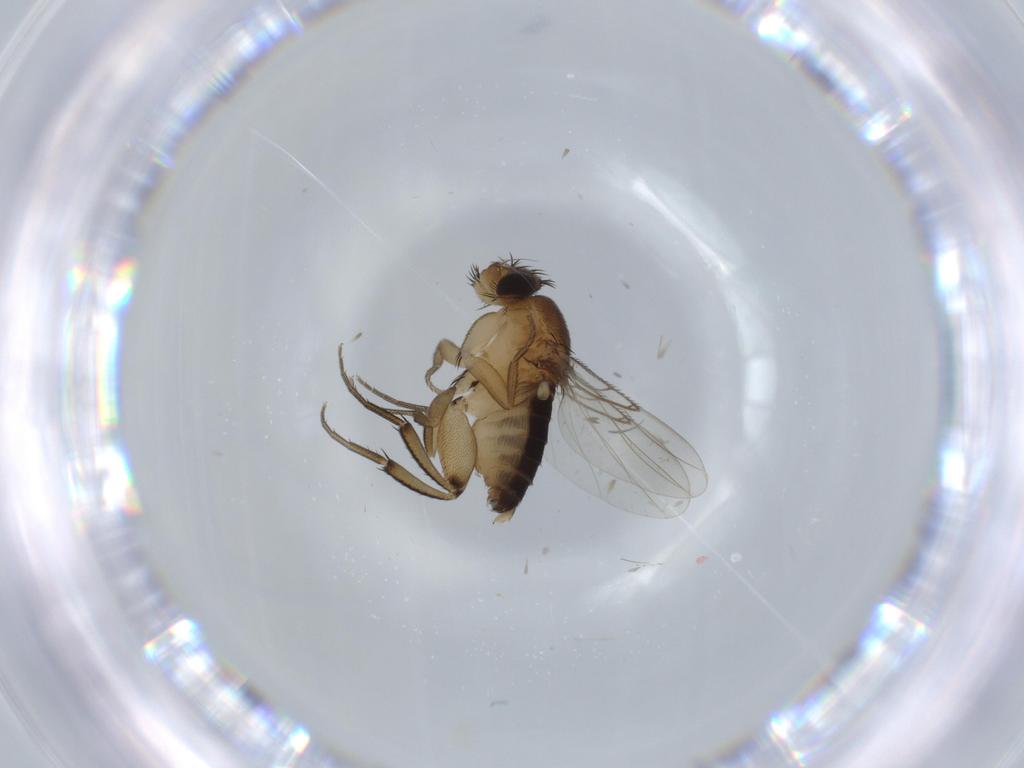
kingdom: Animalia
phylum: Arthropoda
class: Insecta
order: Diptera
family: Phoridae
